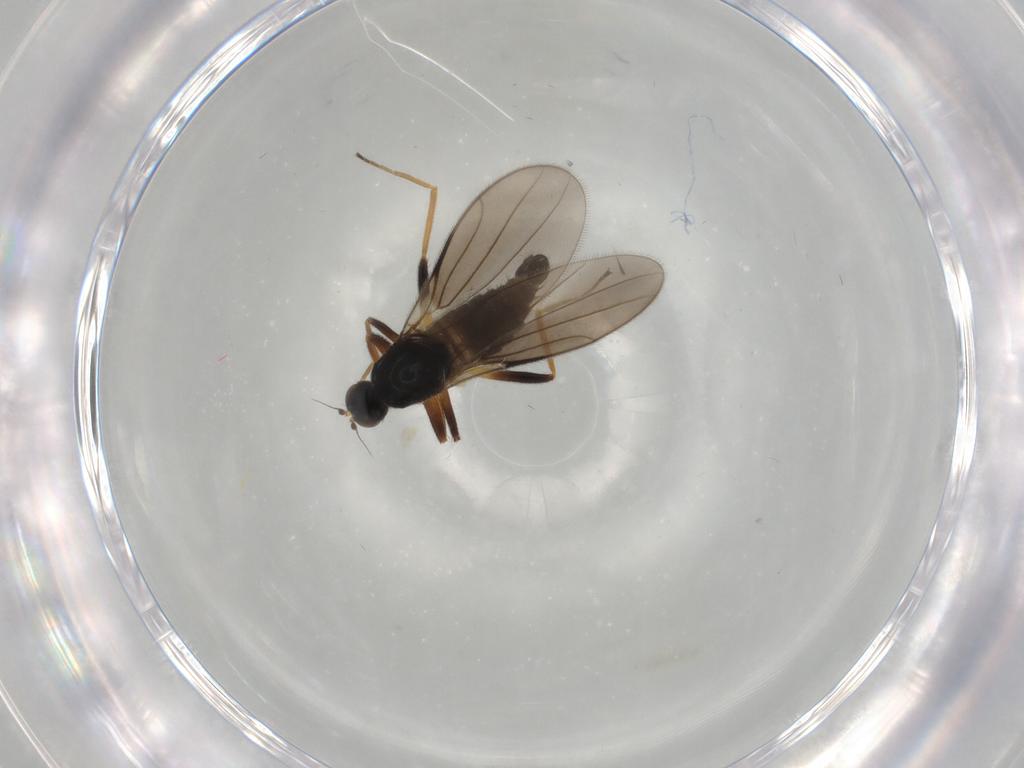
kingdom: Animalia
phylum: Arthropoda
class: Insecta
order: Diptera
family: Hybotidae
